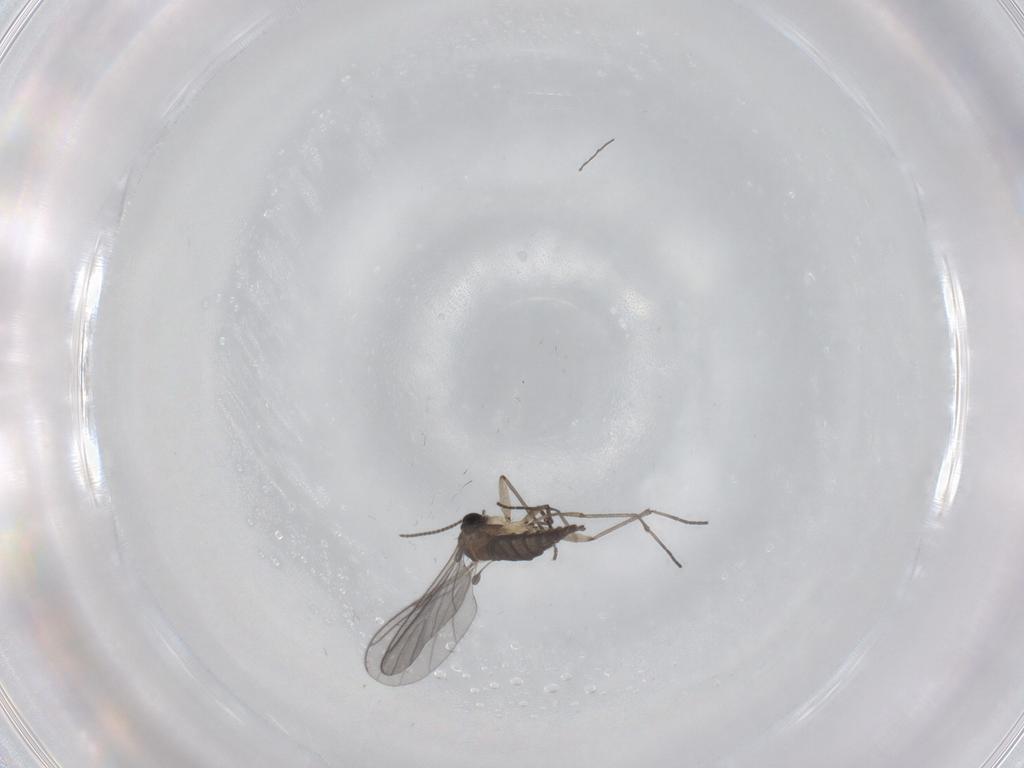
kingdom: Animalia
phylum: Arthropoda
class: Insecta
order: Diptera
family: Sciaridae
